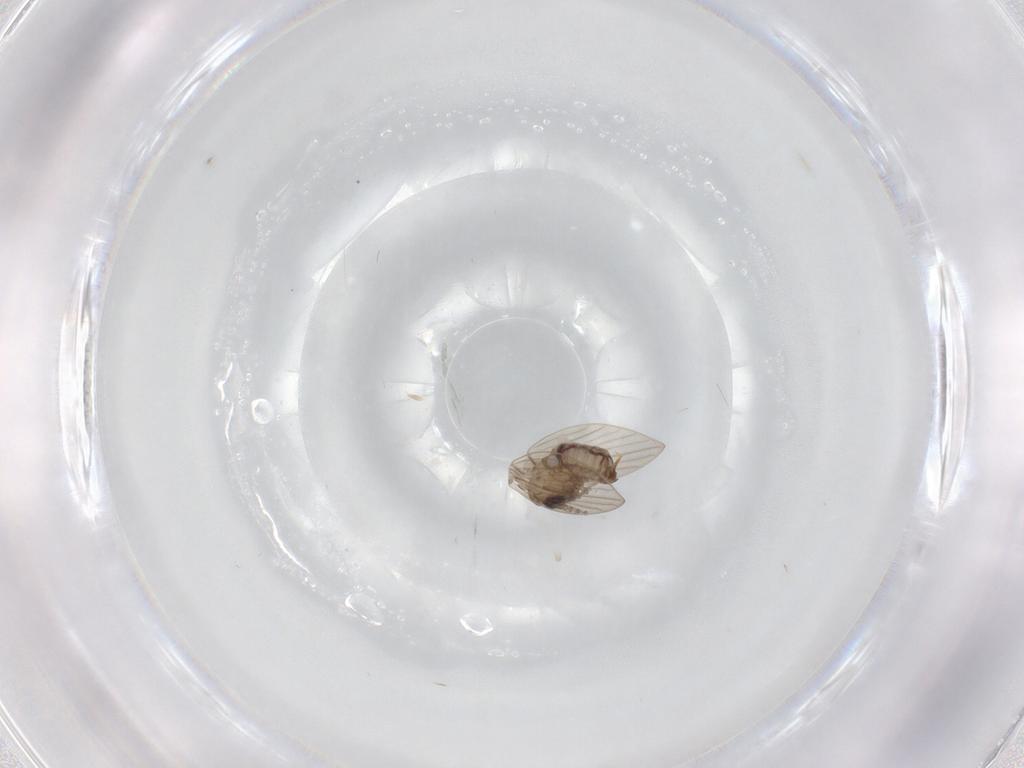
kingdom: Animalia
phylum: Arthropoda
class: Insecta
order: Diptera
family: Psychodidae
